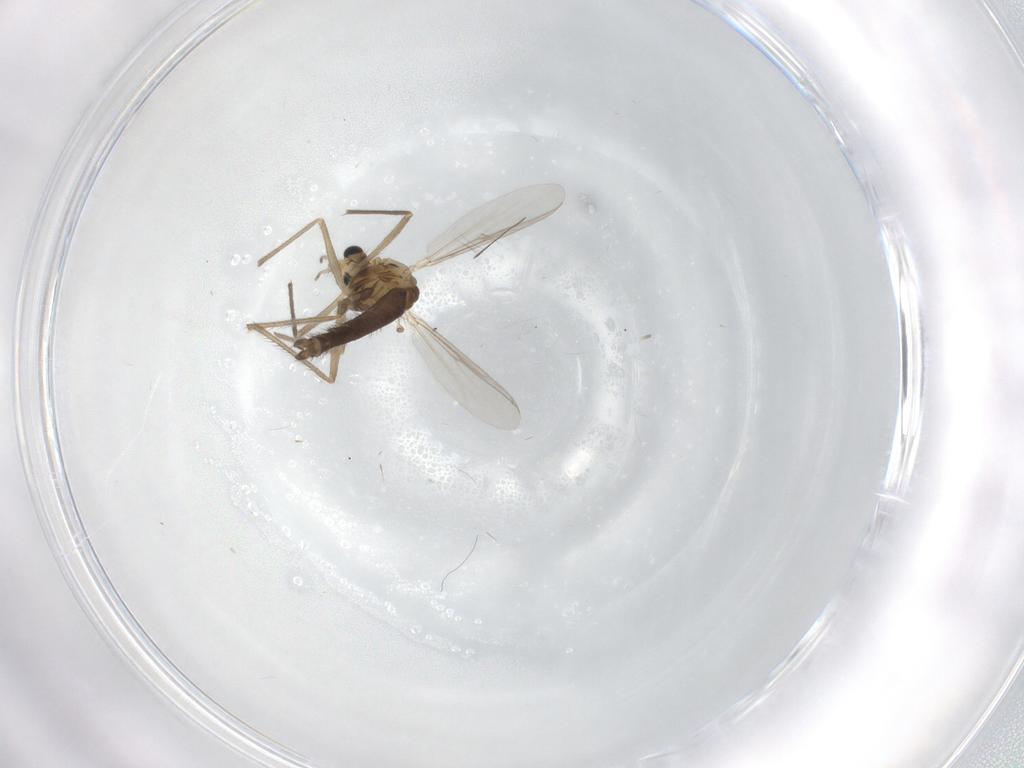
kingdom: Animalia
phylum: Arthropoda
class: Insecta
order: Diptera
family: Chironomidae
